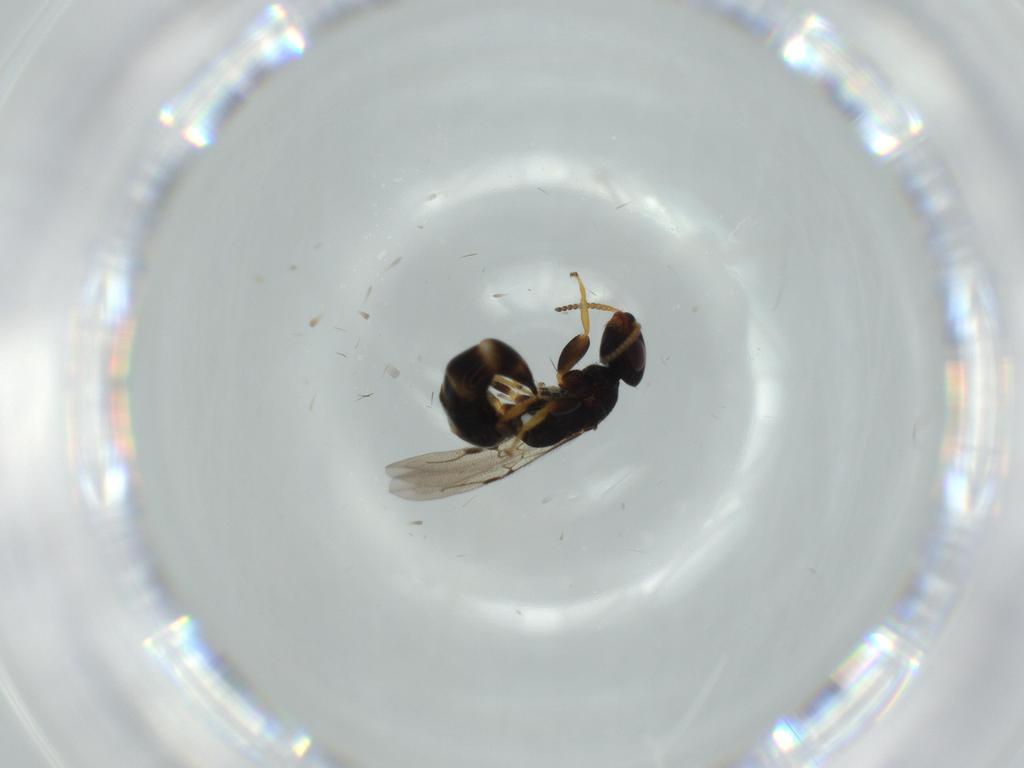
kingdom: Animalia
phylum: Arthropoda
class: Insecta
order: Hymenoptera
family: Bethylidae
